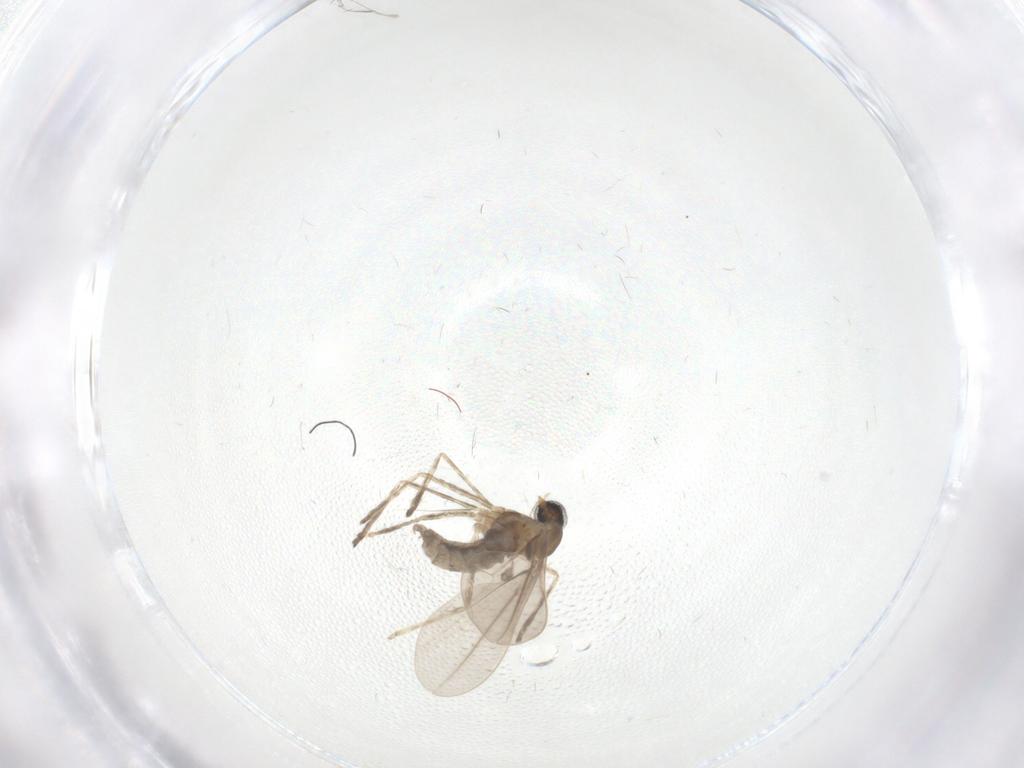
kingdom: Animalia
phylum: Arthropoda
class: Insecta
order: Diptera
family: Cecidomyiidae
